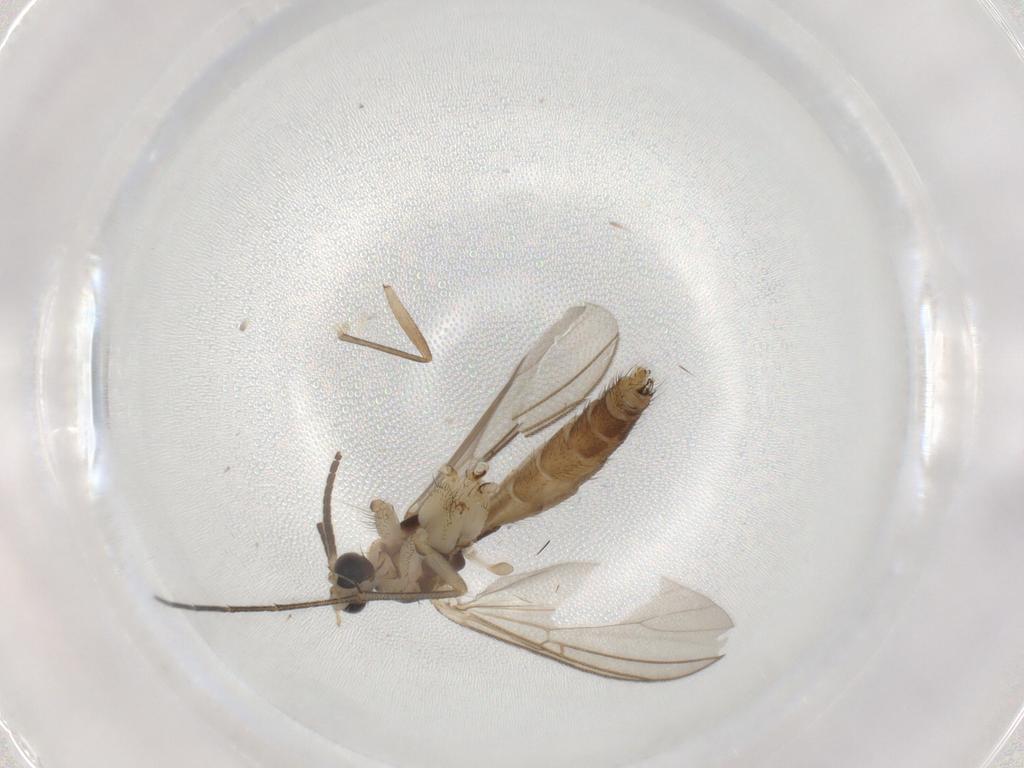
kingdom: Animalia
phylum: Arthropoda
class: Insecta
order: Diptera
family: Mycetophilidae
